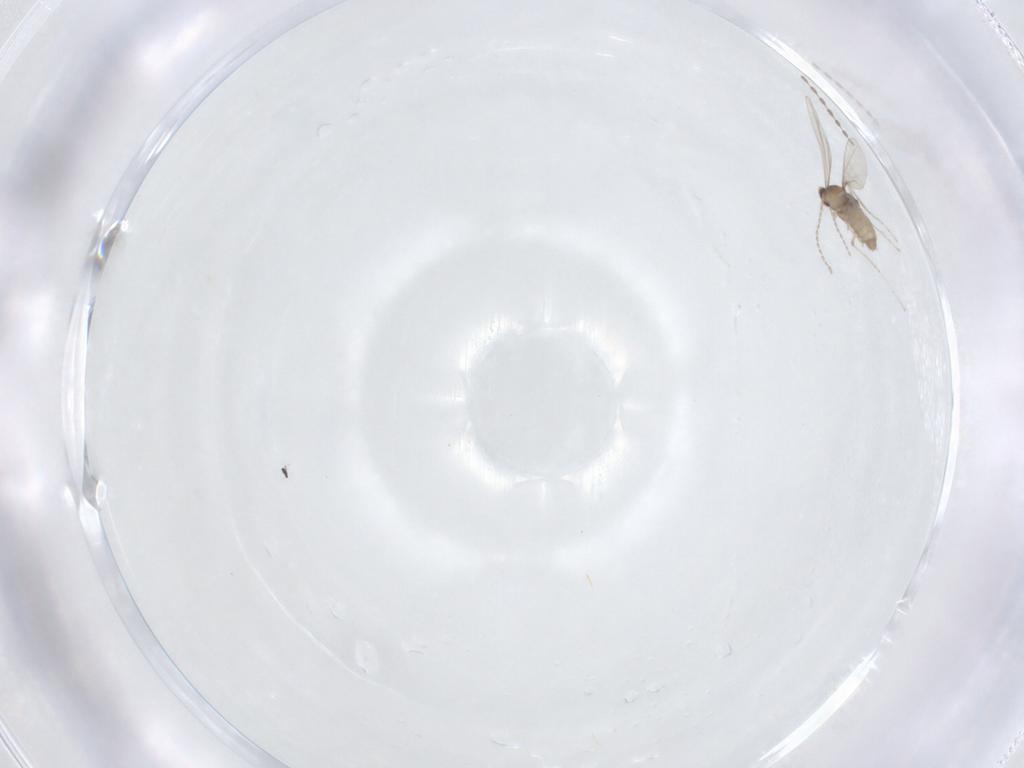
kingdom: Animalia
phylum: Arthropoda
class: Insecta
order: Diptera
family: Cecidomyiidae
